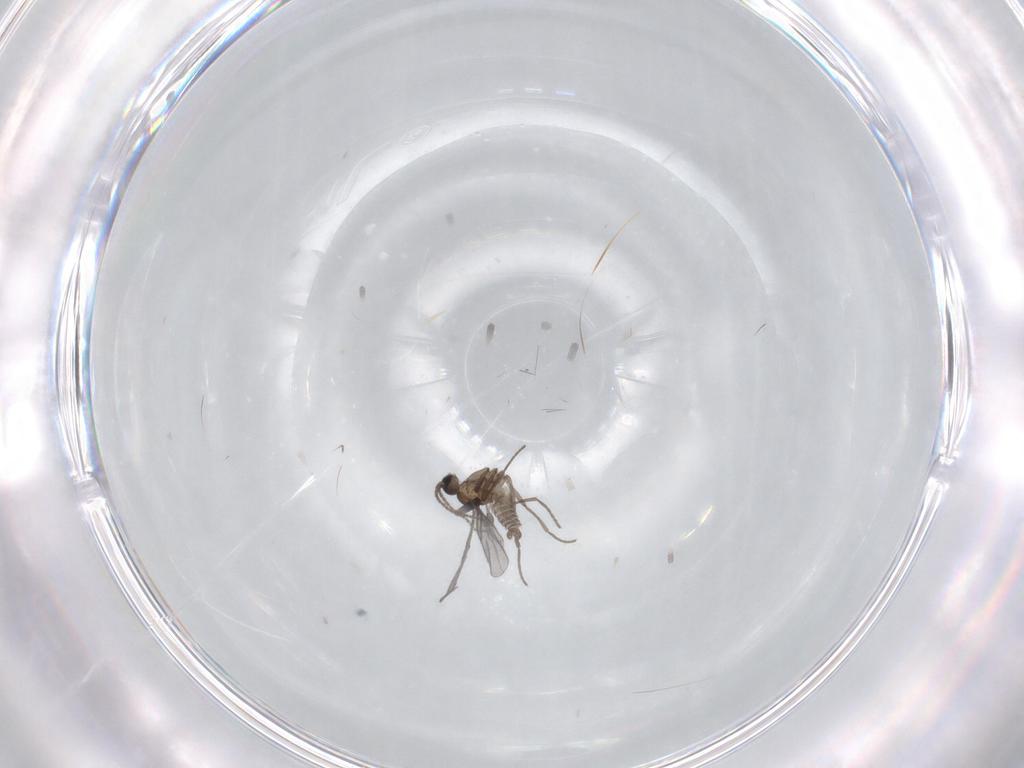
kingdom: Animalia
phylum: Arthropoda
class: Insecta
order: Diptera
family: Sciaridae
